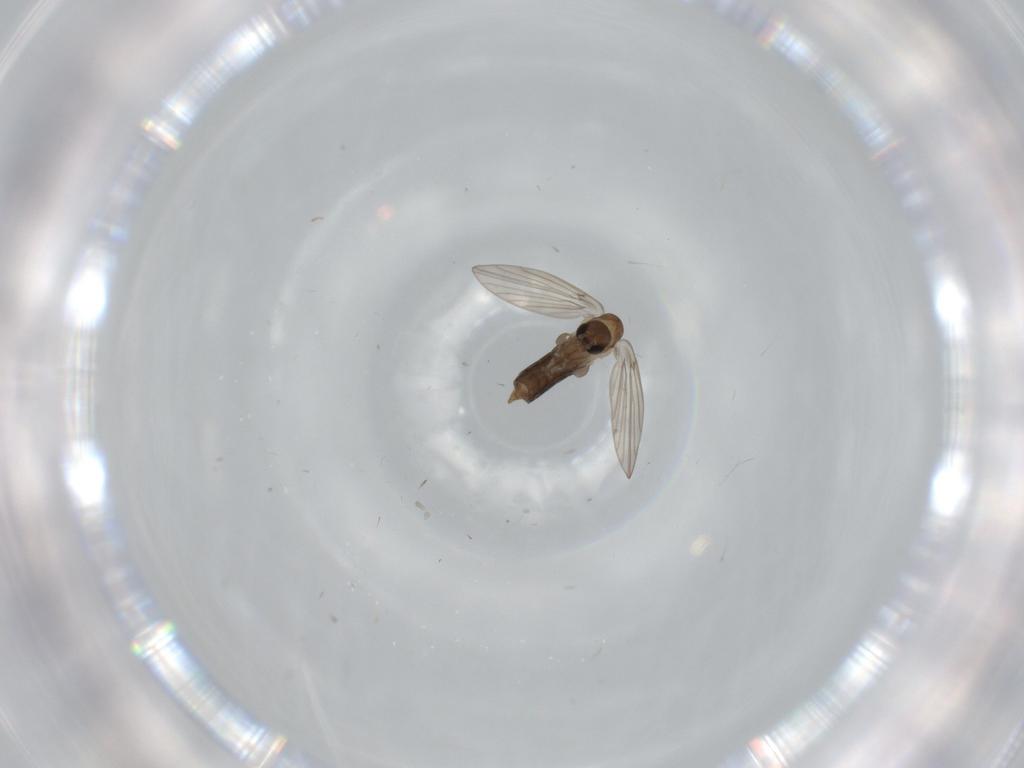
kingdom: Animalia
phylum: Arthropoda
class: Insecta
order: Diptera
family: Phoridae
